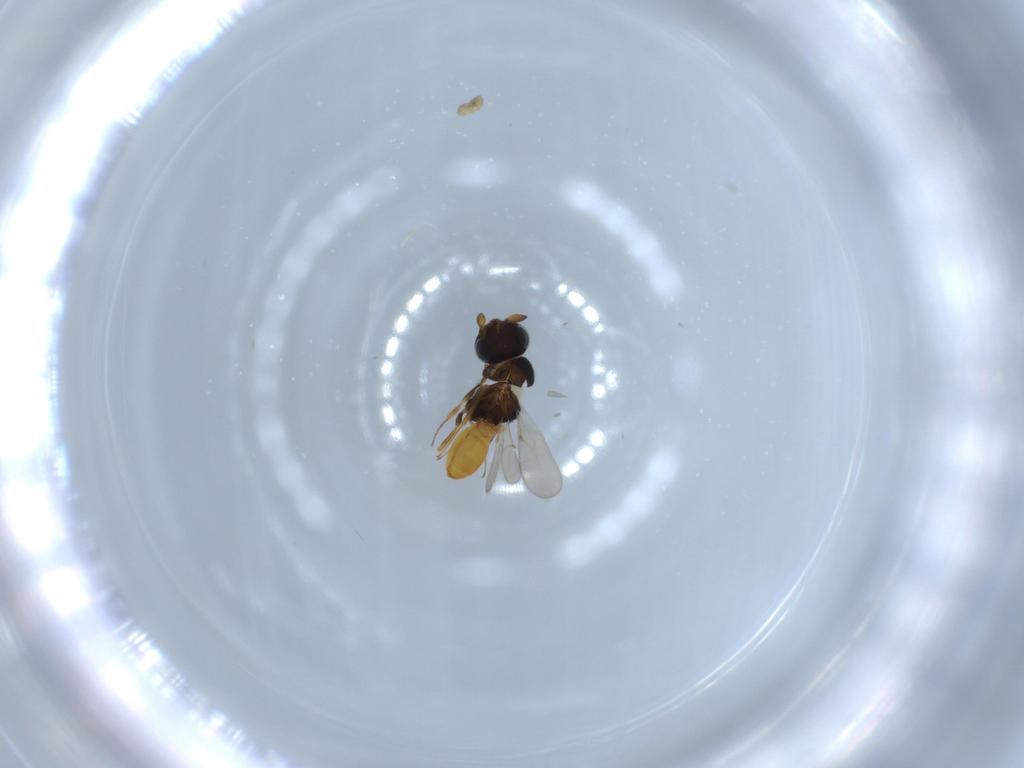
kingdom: Animalia
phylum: Arthropoda
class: Insecta
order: Hymenoptera
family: Scelionidae
